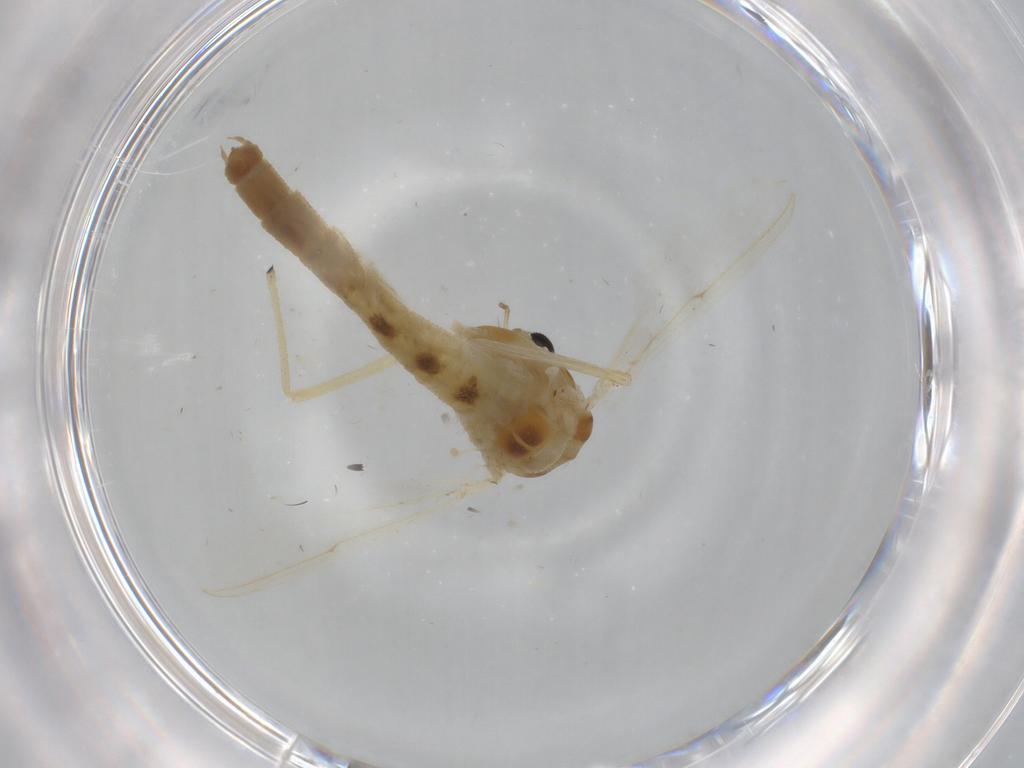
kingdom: Animalia
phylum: Arthropoda
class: Insecta
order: Diptera
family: Chironomidae
